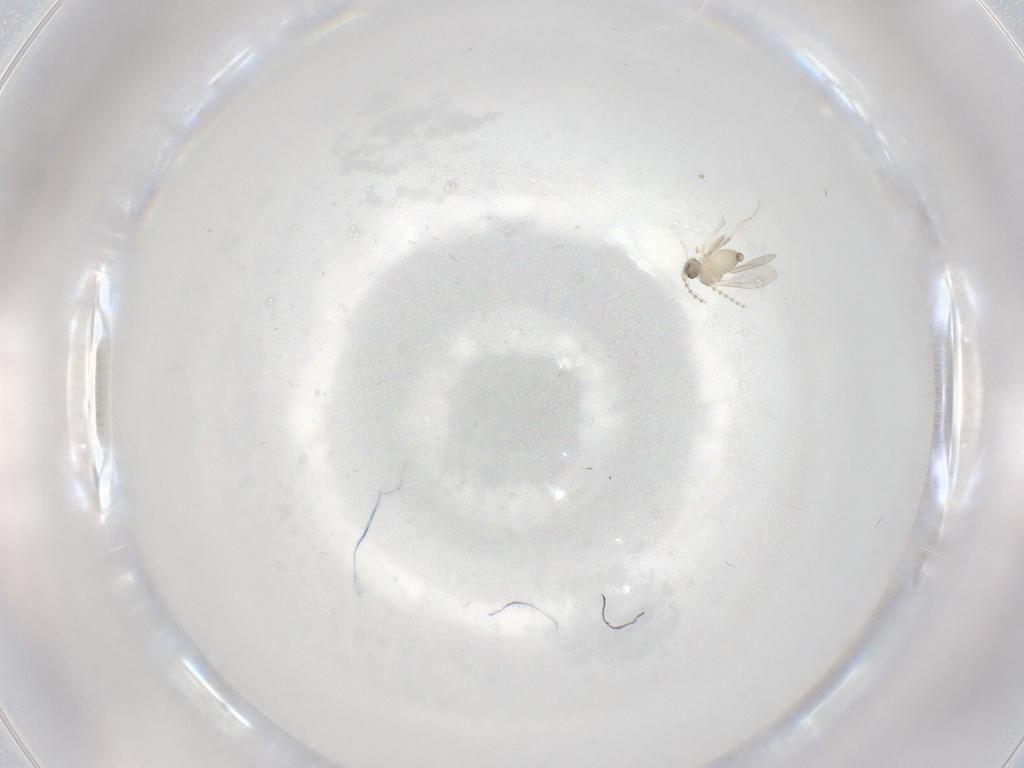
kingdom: Animalia
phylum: Arthropoda
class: Insecta
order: Diptera
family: Cecidomyiidae
